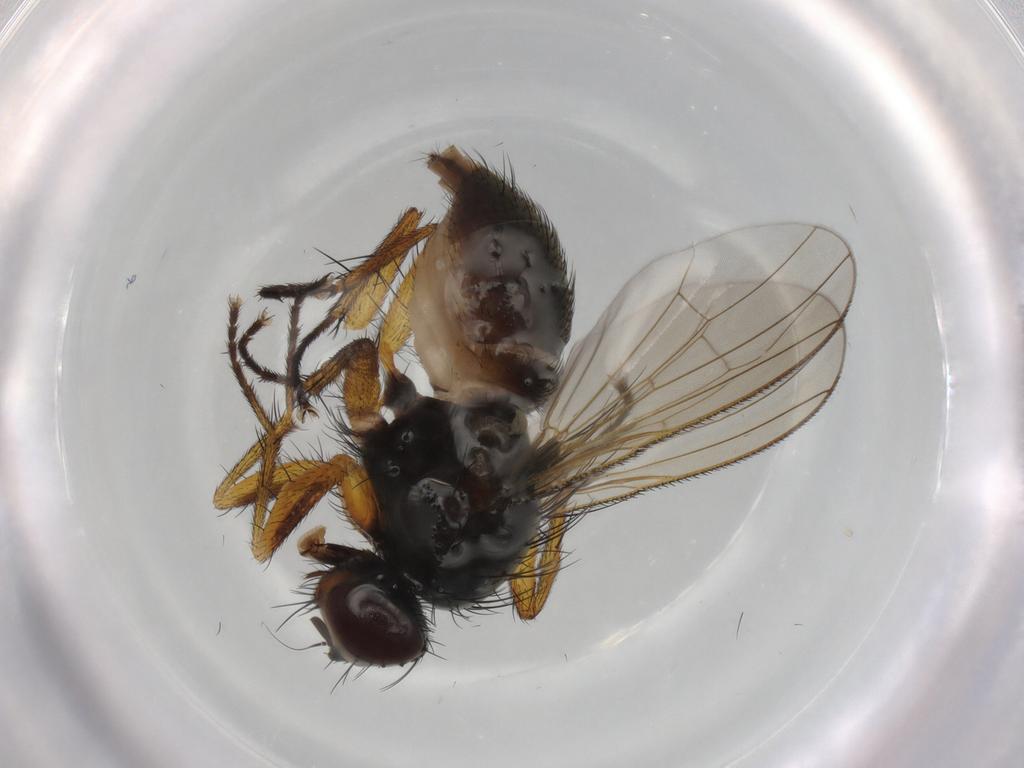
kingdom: Animalia
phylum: Arthropoda
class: Insecta
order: Diptera
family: Muscidae
